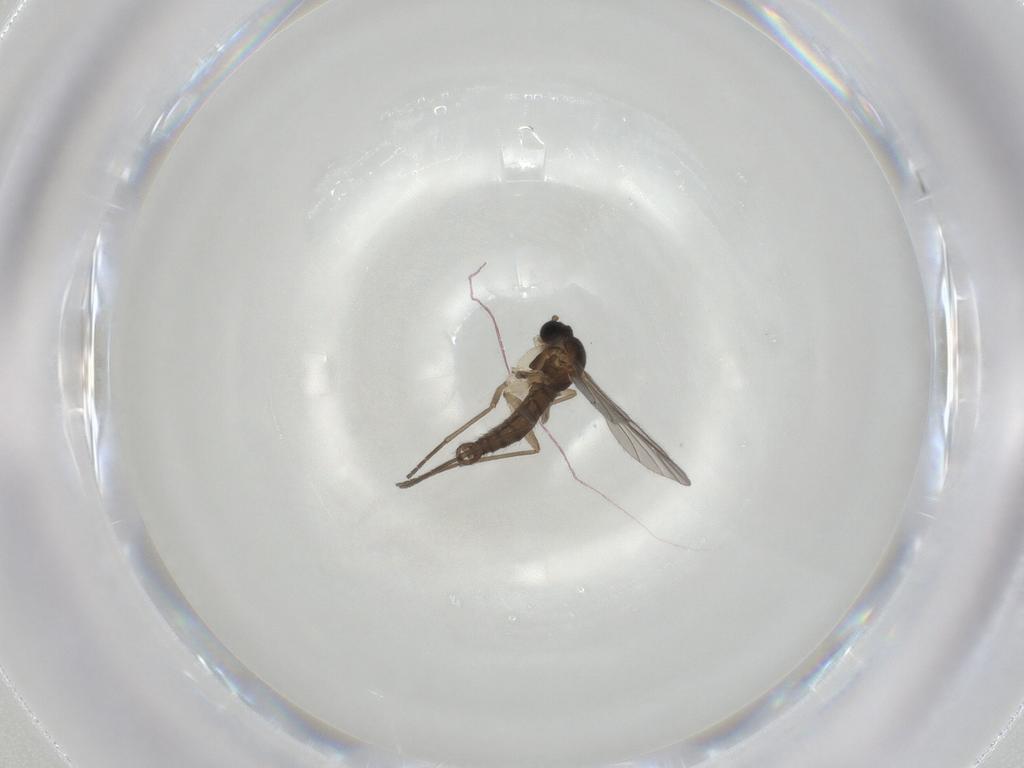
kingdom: Animalia
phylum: Arthropoda
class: Insecta
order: Diptera
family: Sciaridae
